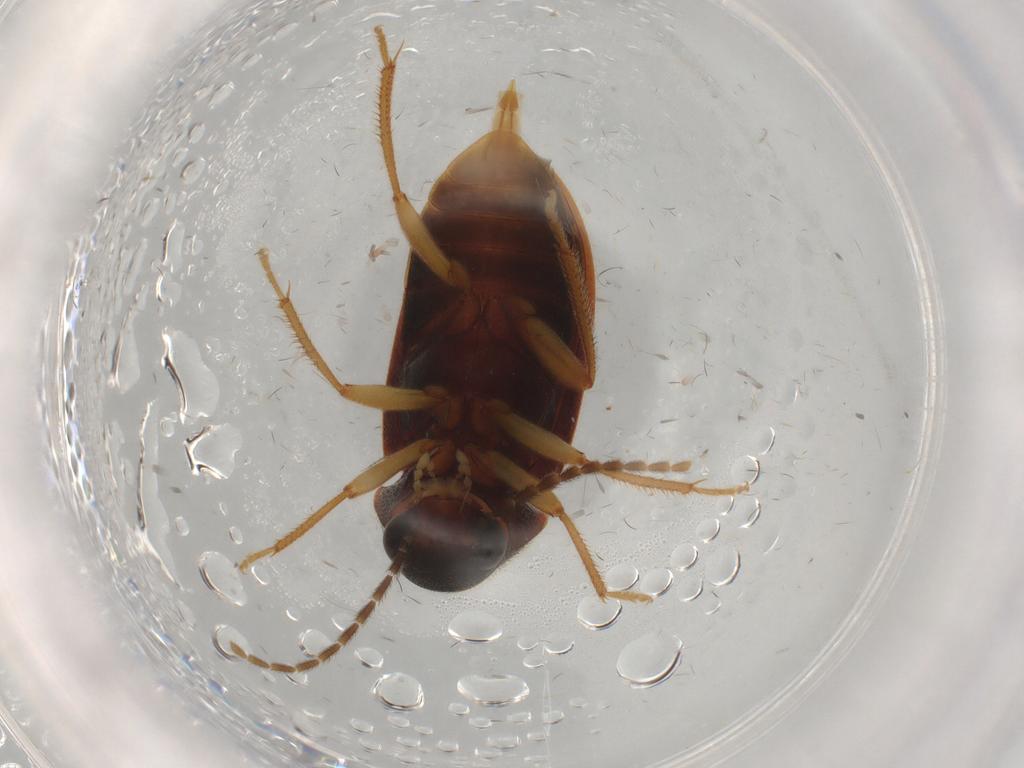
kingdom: Animalia
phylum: Arthropoda
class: Insecta
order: Coleoptera
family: Ptilodactylidae
